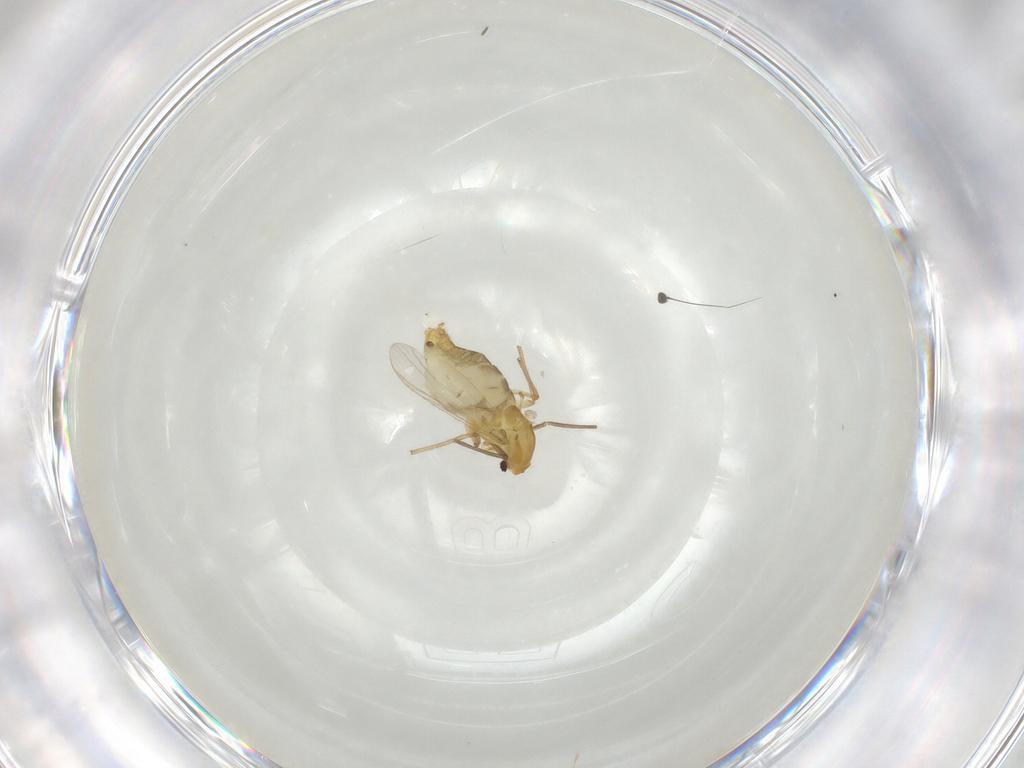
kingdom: Animalia
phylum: Arthropoda
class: Insecta
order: Diptera
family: Chironomidae
